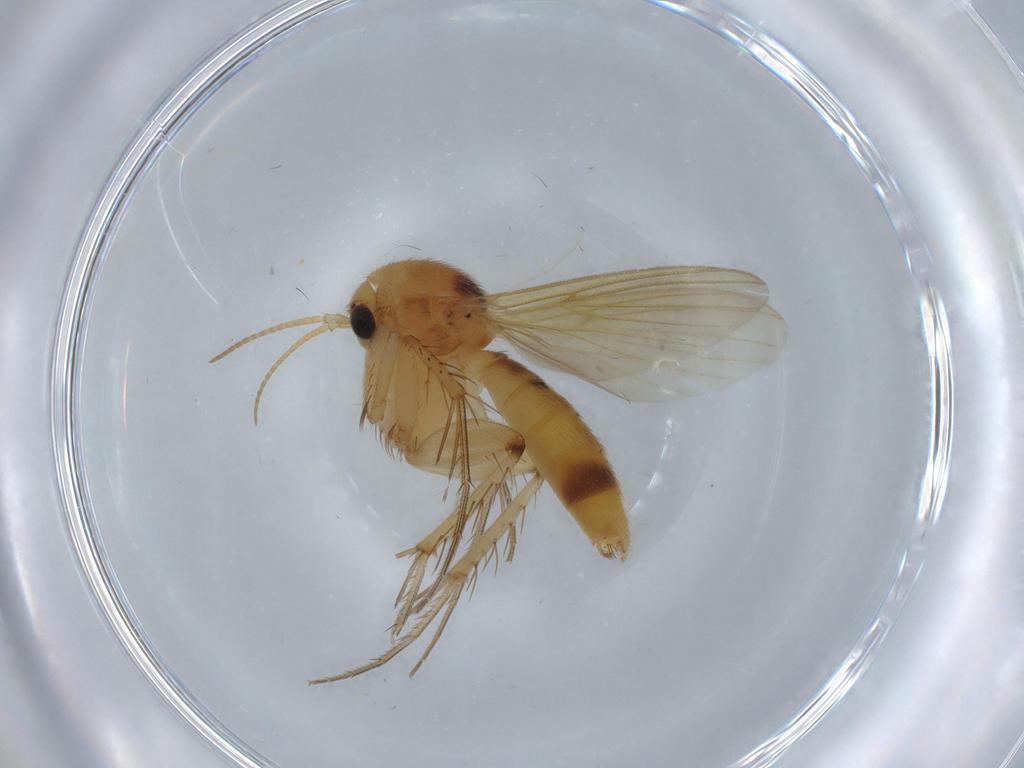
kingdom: Animalia
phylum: Arthropoda
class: Insecta
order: Diptera
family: Ceratopogonidae
